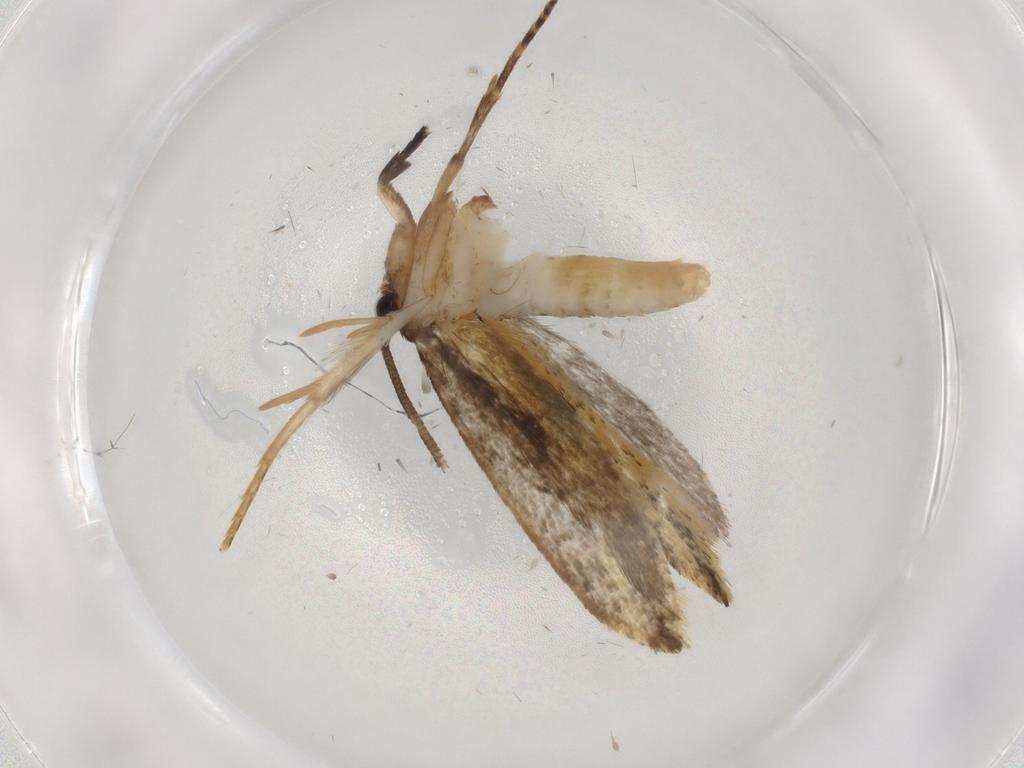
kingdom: Animalia
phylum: Arthropoda
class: Insecta
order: Lepidoptera
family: Tineidae
